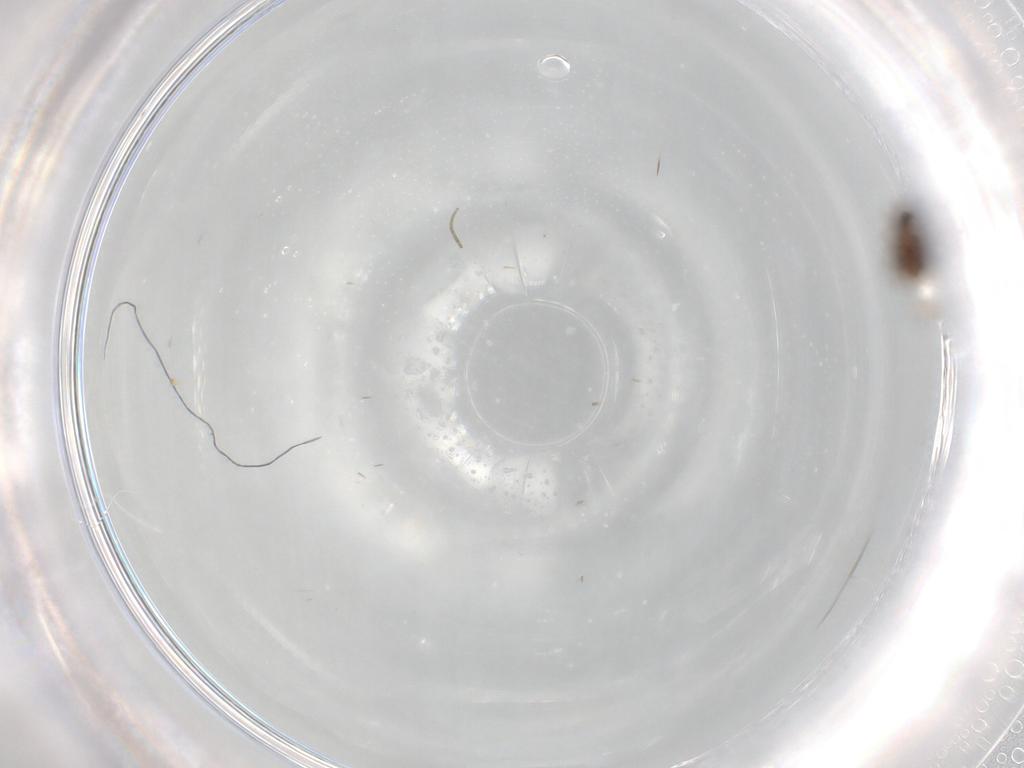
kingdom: Animalia
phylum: Arthropoda
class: Insecta
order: Diptera
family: Ceratopogonidae
